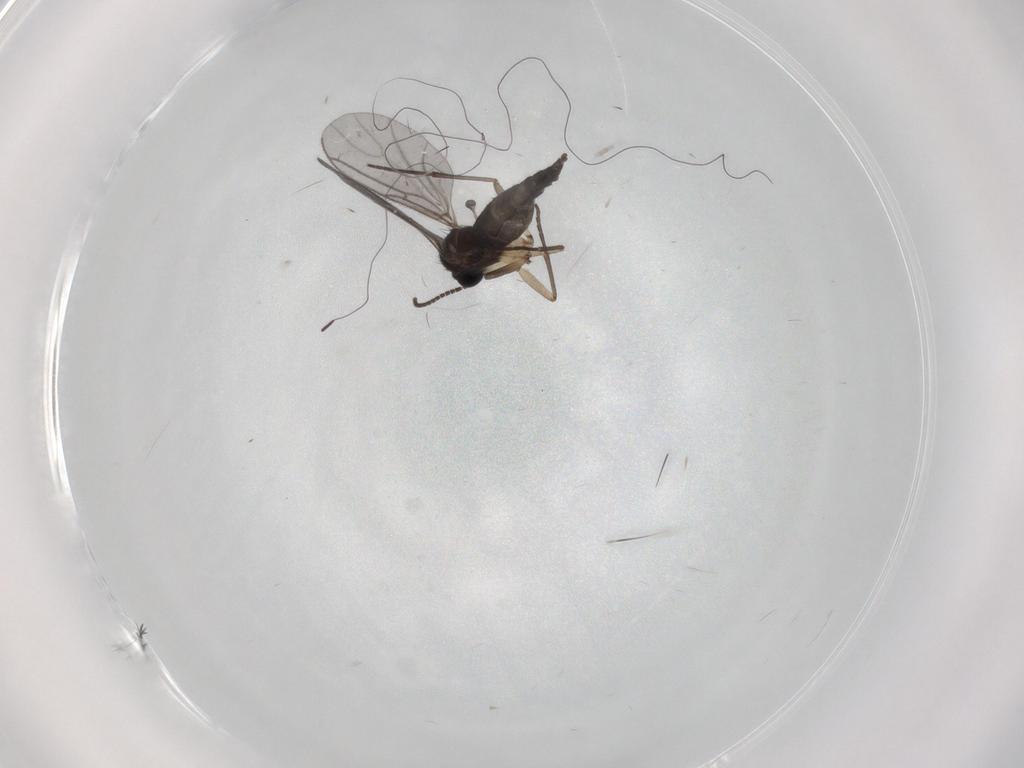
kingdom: Animalia
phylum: Arthropoda
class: Insecta
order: Diptera
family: Sciaridae
